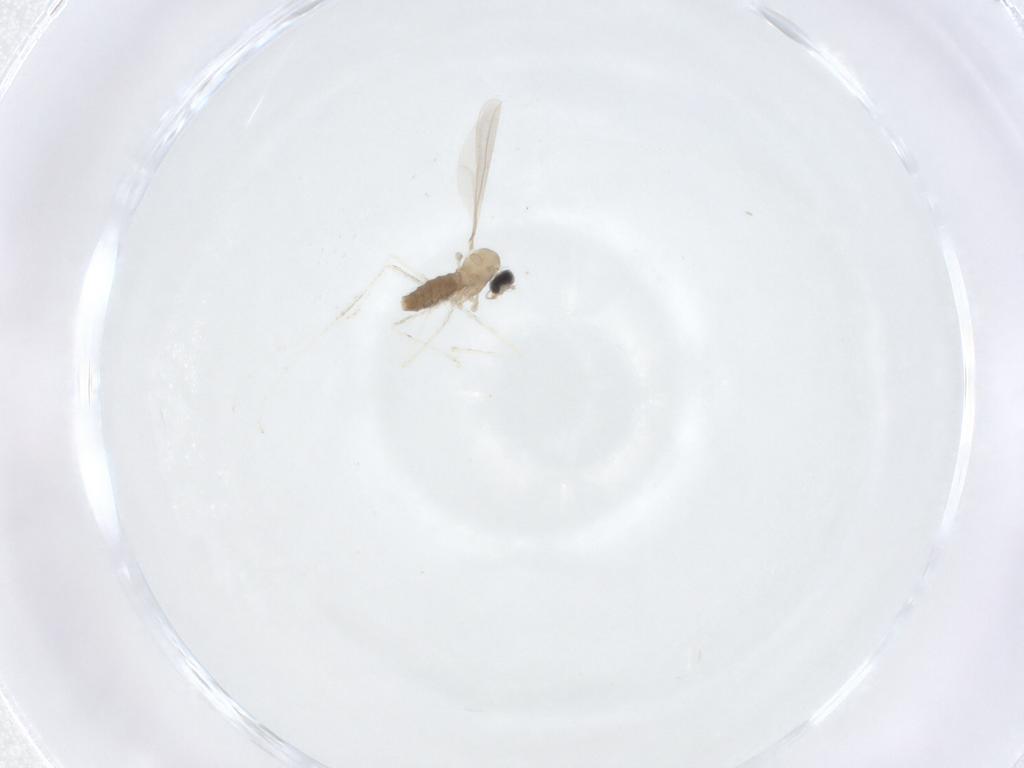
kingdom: Animalia
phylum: Arthropoda
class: Insecta
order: Diptera
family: Cecidomyiidae
